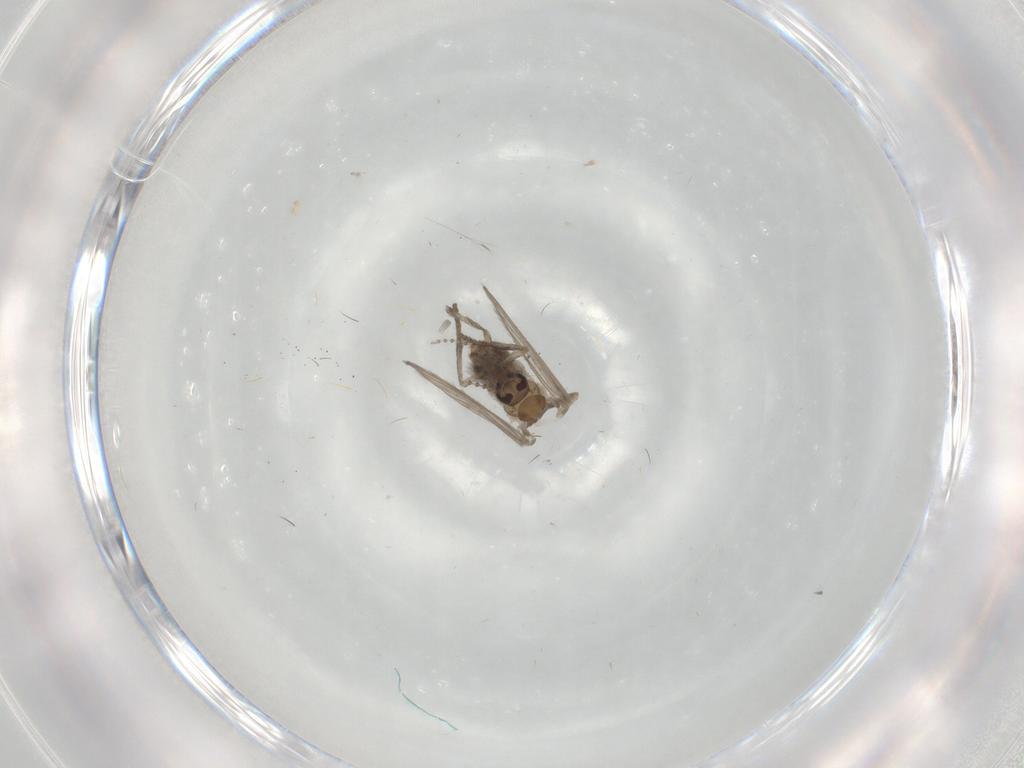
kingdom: Animalia
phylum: Arthropoda
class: Insecta
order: Diptera
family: Psychodidae
